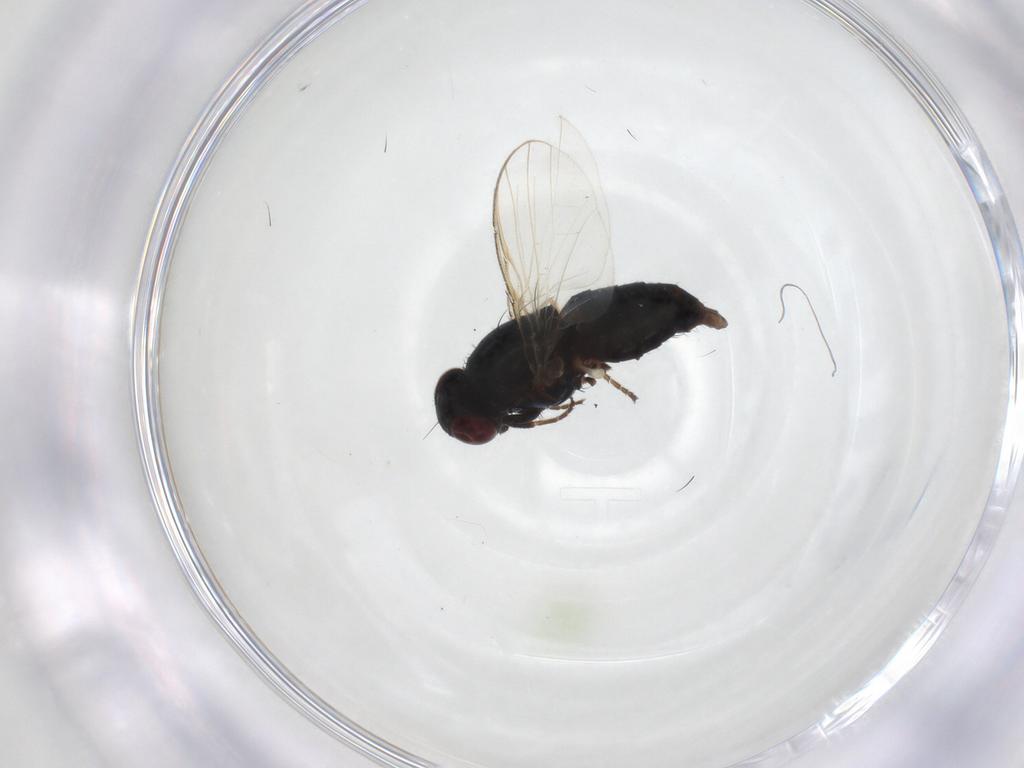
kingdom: Animalia
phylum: Arthropoda
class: Insecta
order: Diptera
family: Carnidae
